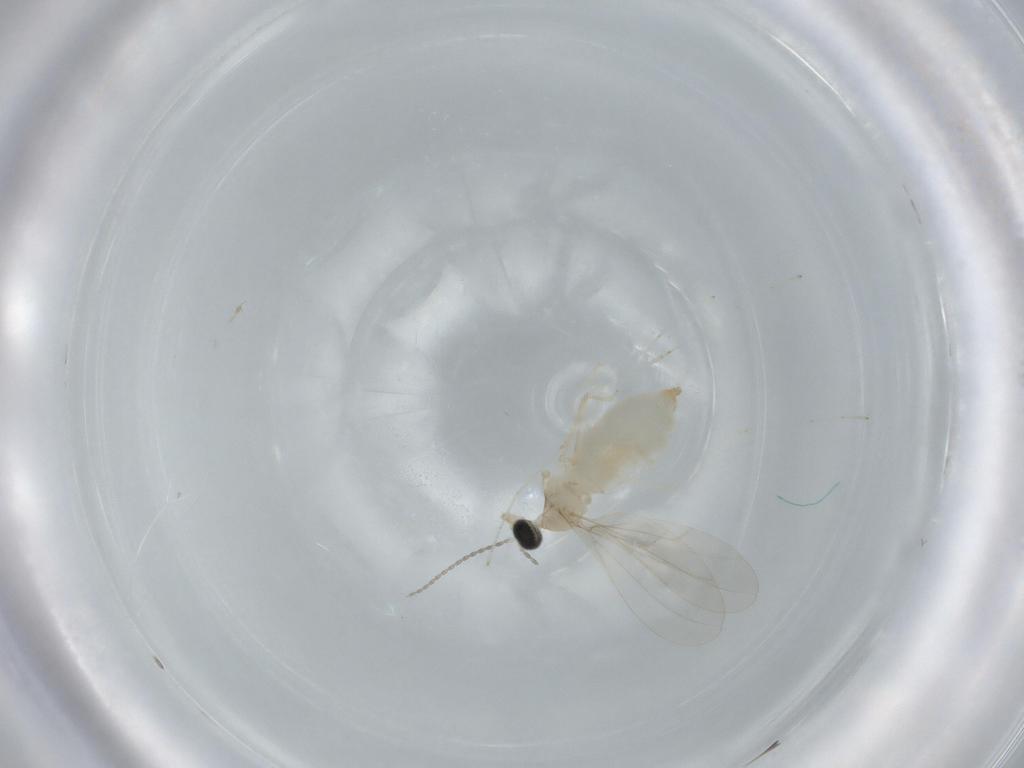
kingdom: Animalia
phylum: Arthropoda
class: Insecta
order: Diptera
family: Cecidomyiidae
